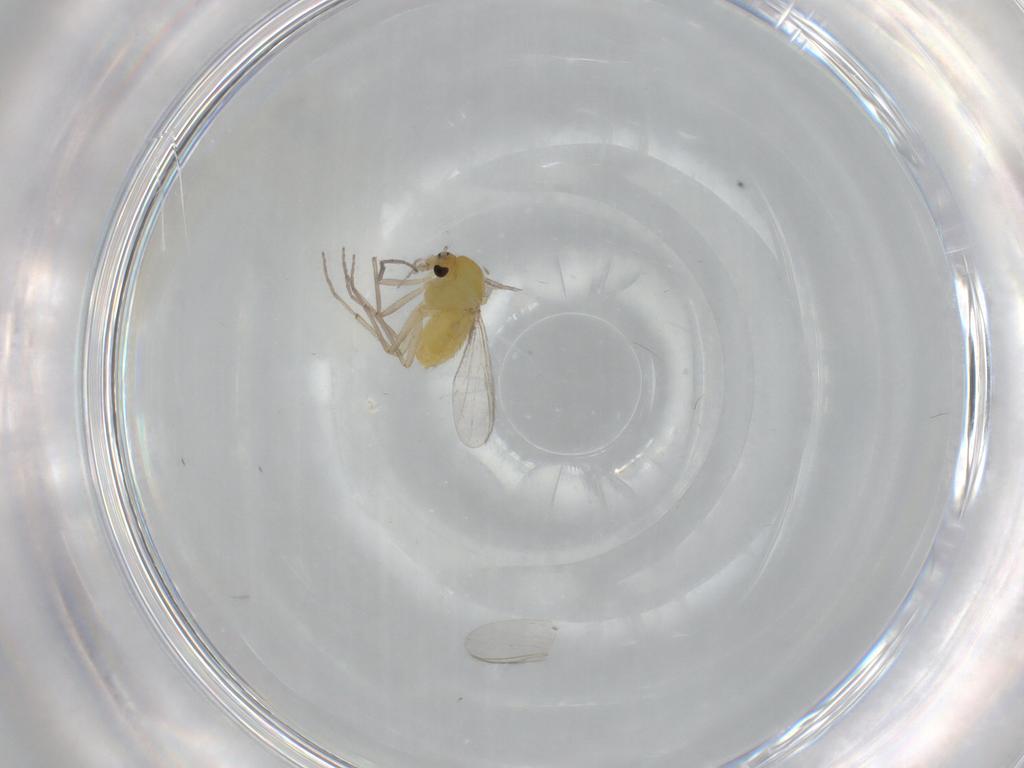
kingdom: Animalia
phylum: Arthropoda
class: Insecta
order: Diptera
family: Chironomidae
